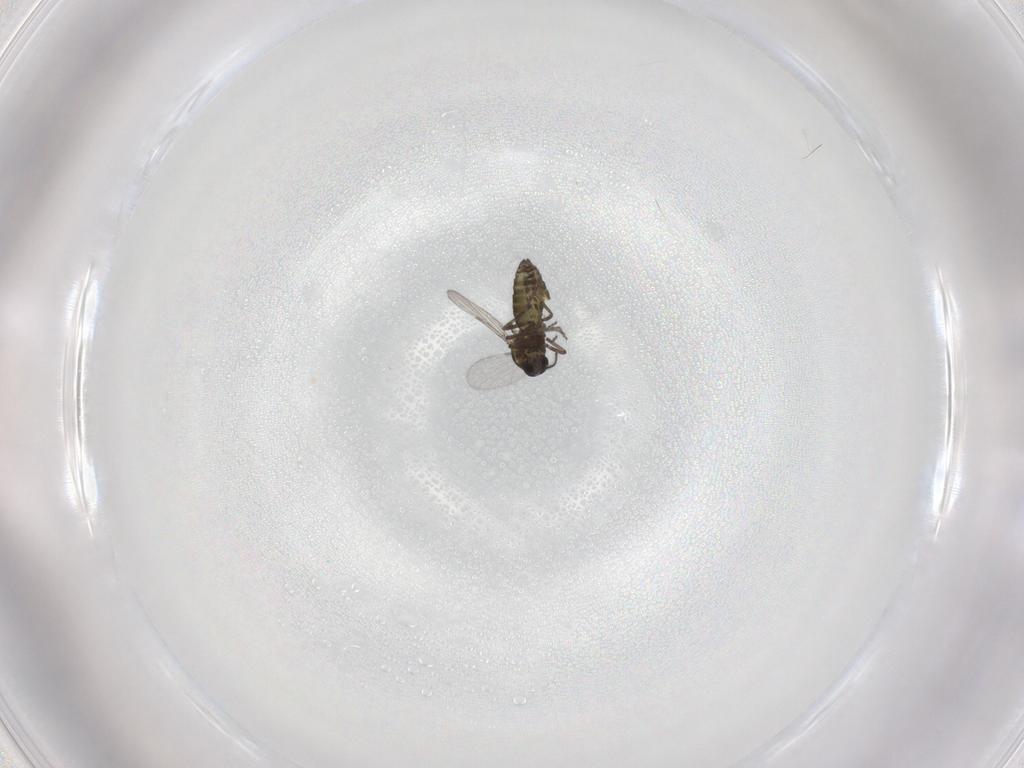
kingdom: Animalia
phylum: Arthropoda
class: Insecta
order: Diptera
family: Ceratopogonidae
